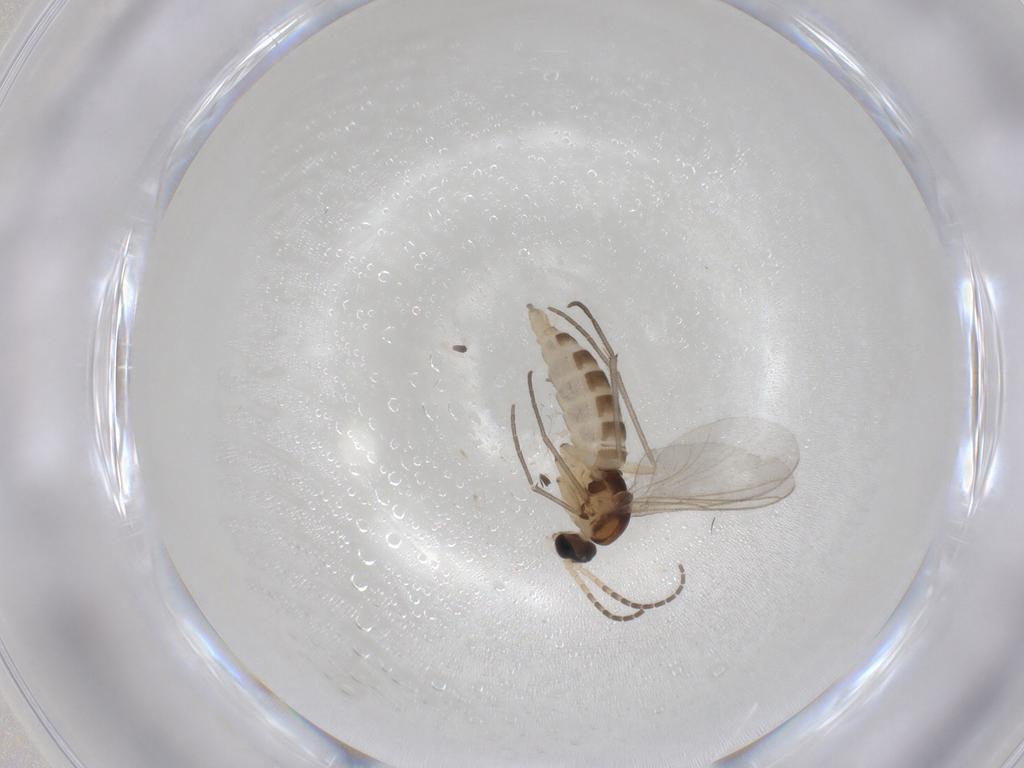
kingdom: Animalia
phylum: Arthropoda
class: Insecta
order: Diptera
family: Sciaridae
